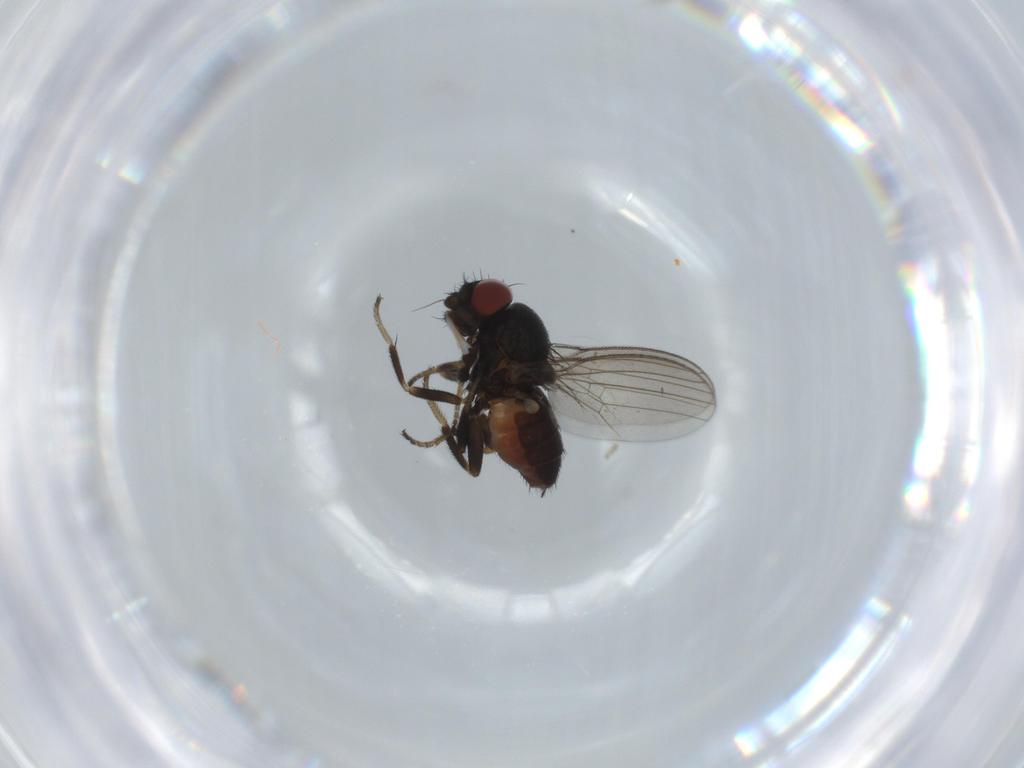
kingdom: Animalia
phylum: Arthropoda
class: Insecta
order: Diptera
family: Milichiidae
